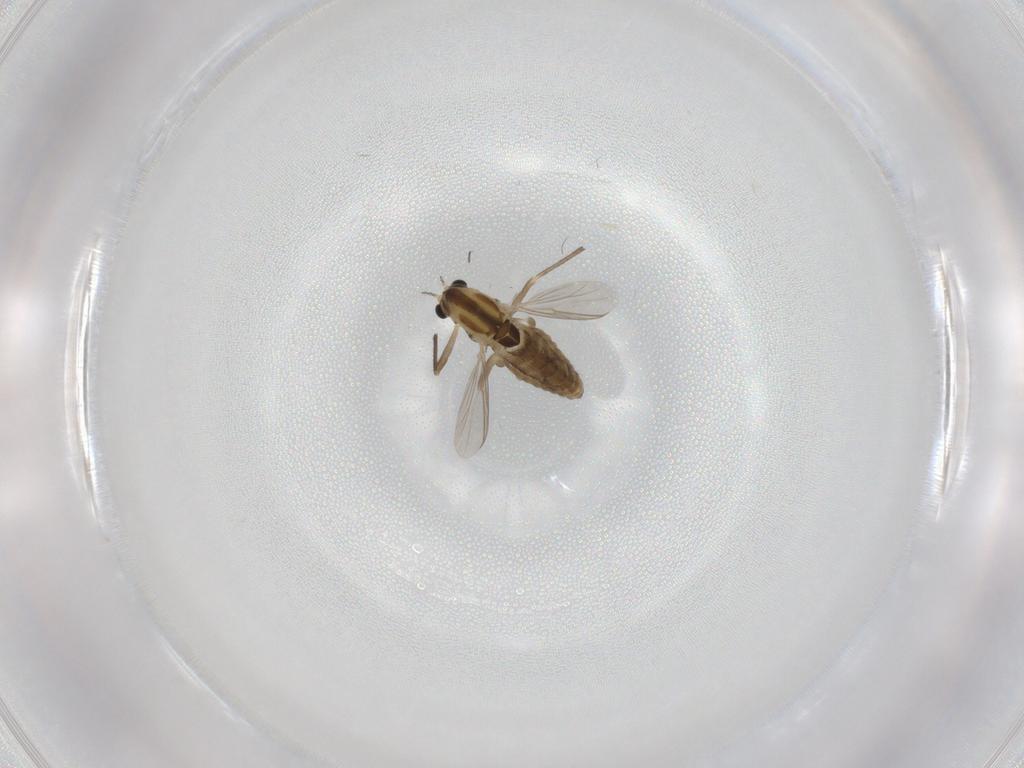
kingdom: Animalia
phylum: Arthropoda
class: Insecta
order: Diptera
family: Chironomidae
